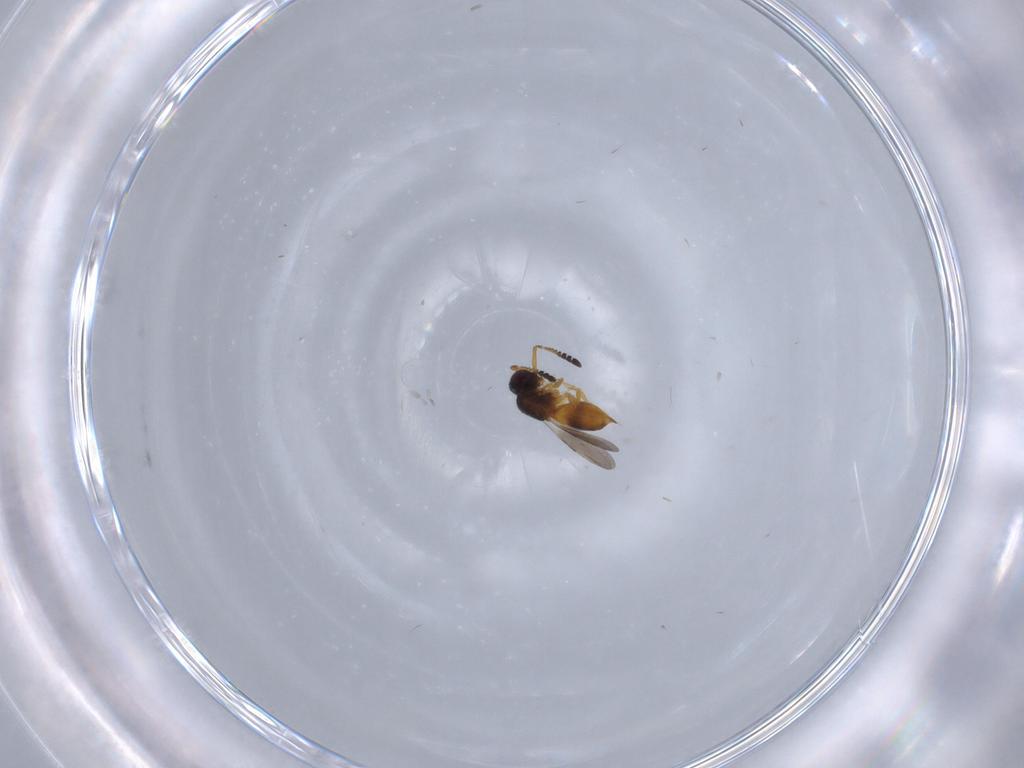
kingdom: Animalia
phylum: Arthropoda
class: Insecta
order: Hymenoptera
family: Ceraphronidae
